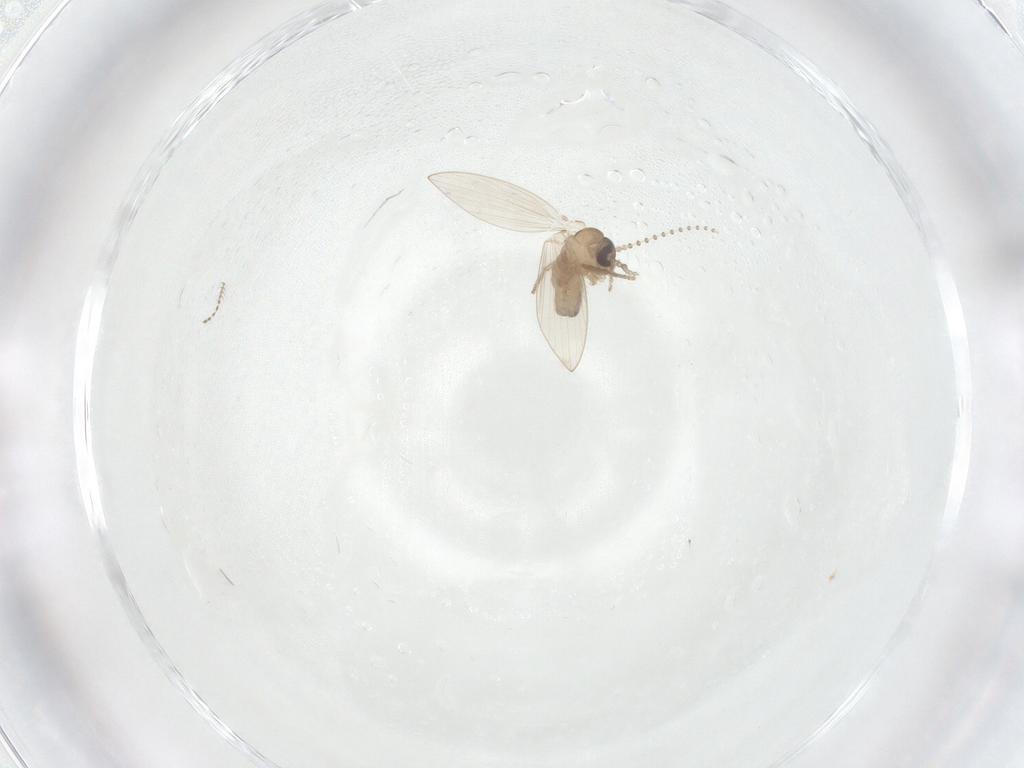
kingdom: Animalia
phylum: Arthropoda
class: Insecta
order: Diptera
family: Psychodidae
